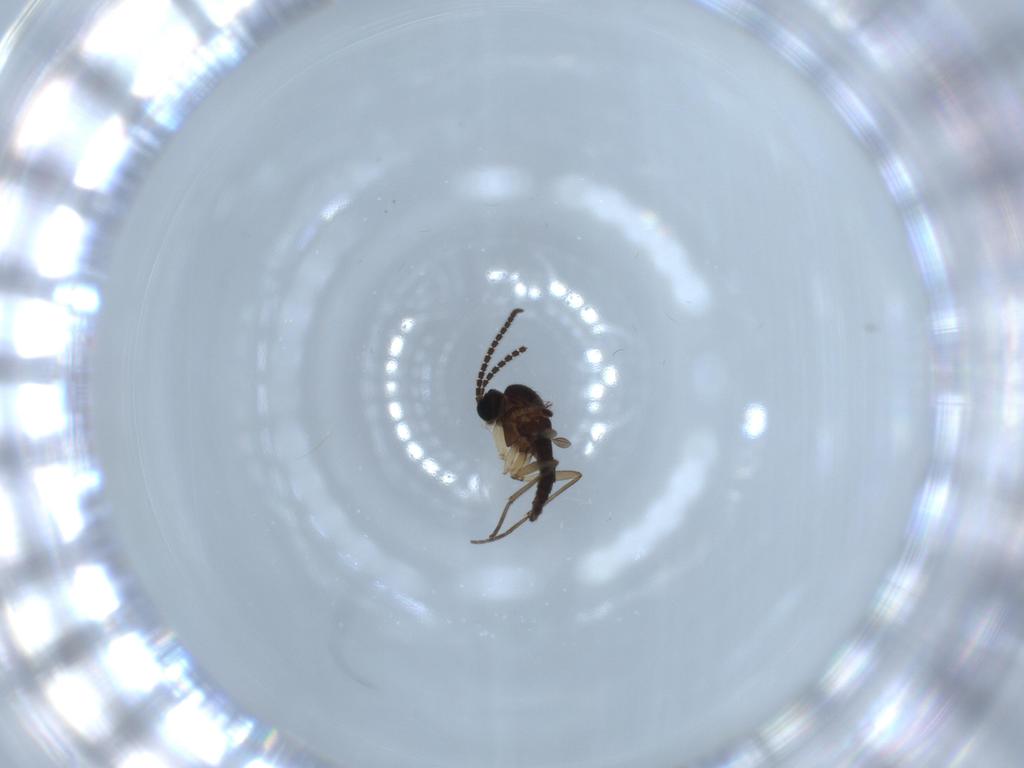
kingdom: Animalia
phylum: Arthropoda
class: Insecta
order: Diptera
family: Sciaridae
